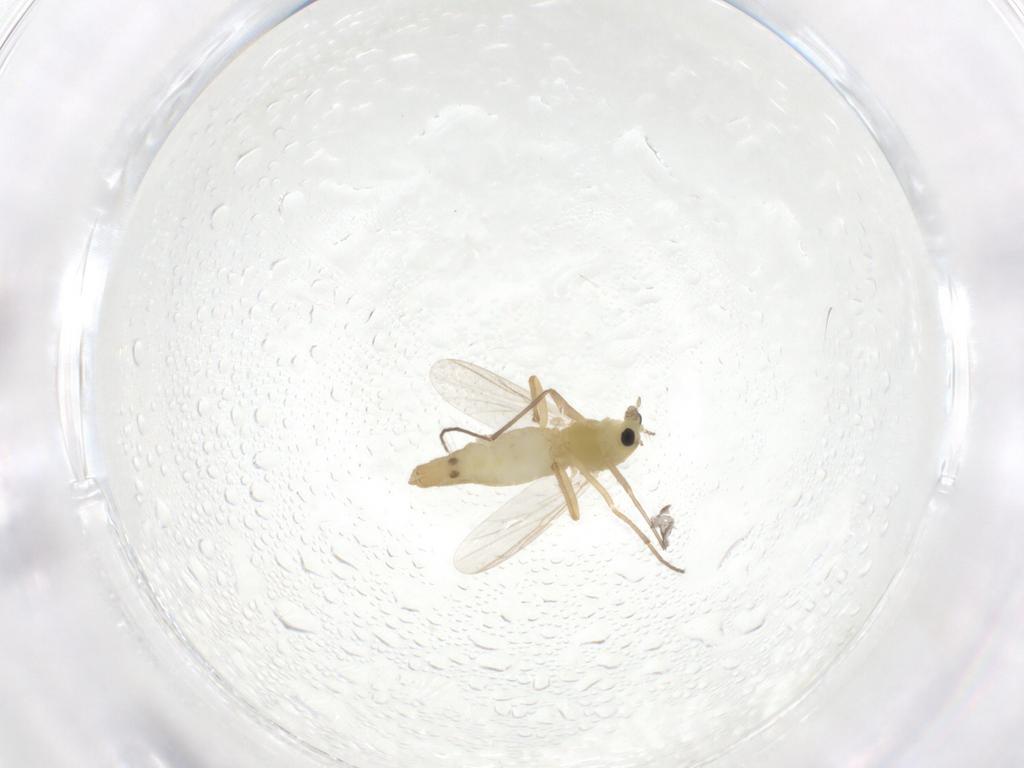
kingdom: Animalia
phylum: Arthropoda
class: Insecta
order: Diptera
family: Chironomidae
